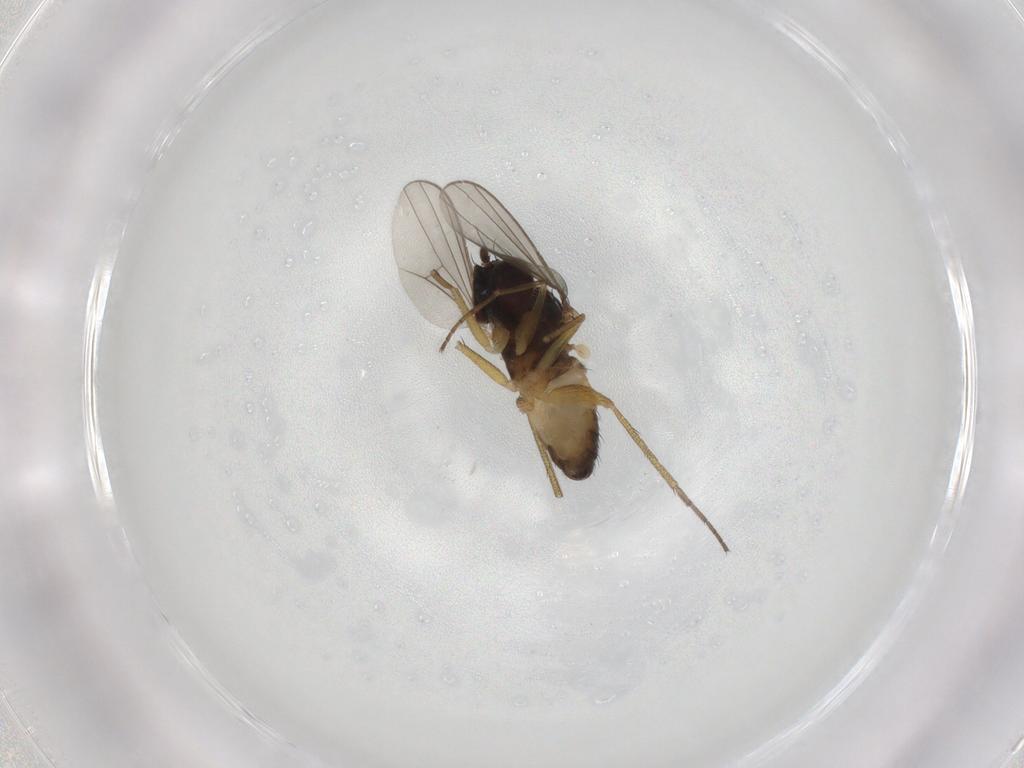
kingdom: Animalia
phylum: Arthropoda
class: Insecta
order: Diptera
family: Dolichopodidae
